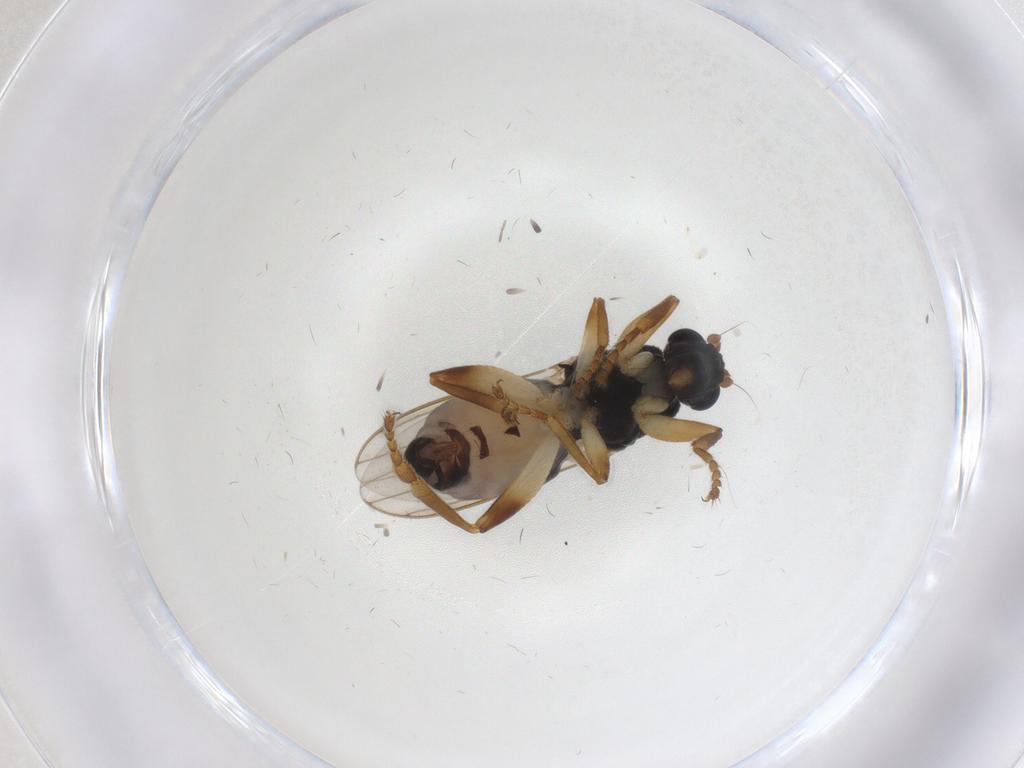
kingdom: Animalia
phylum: Arthropoda
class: Insecta
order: Diptera
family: Sphaeroceridae
